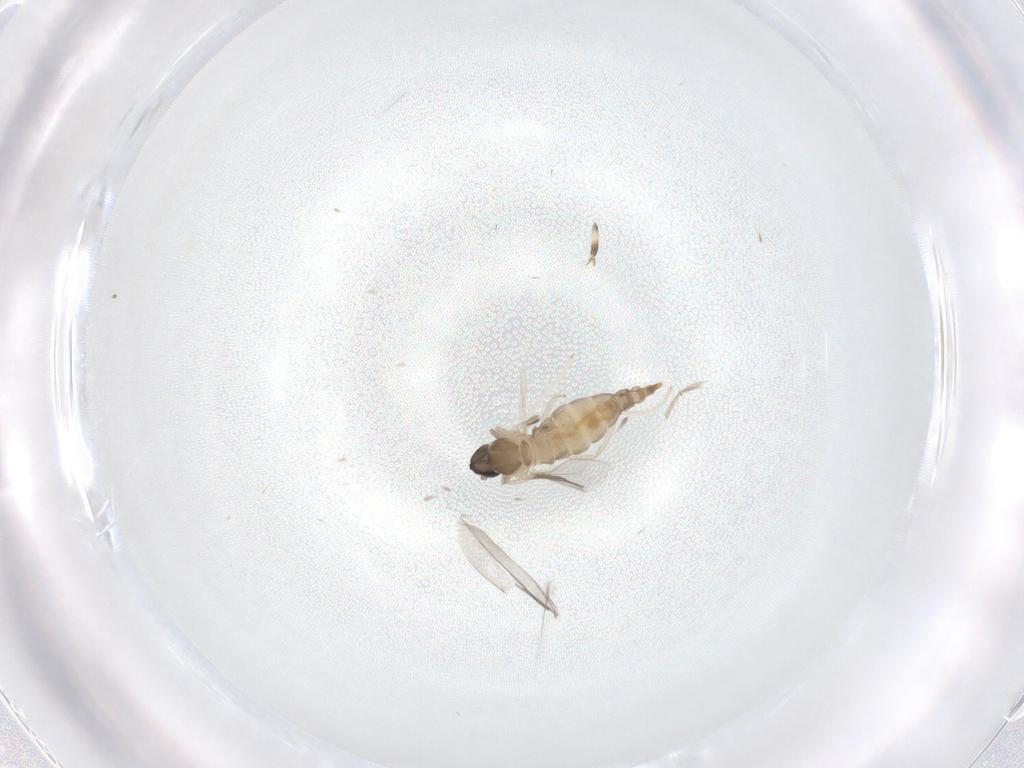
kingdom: Animalia
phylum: Arthropoda
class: Insecta
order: Diptera
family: Cecidomyiidae
